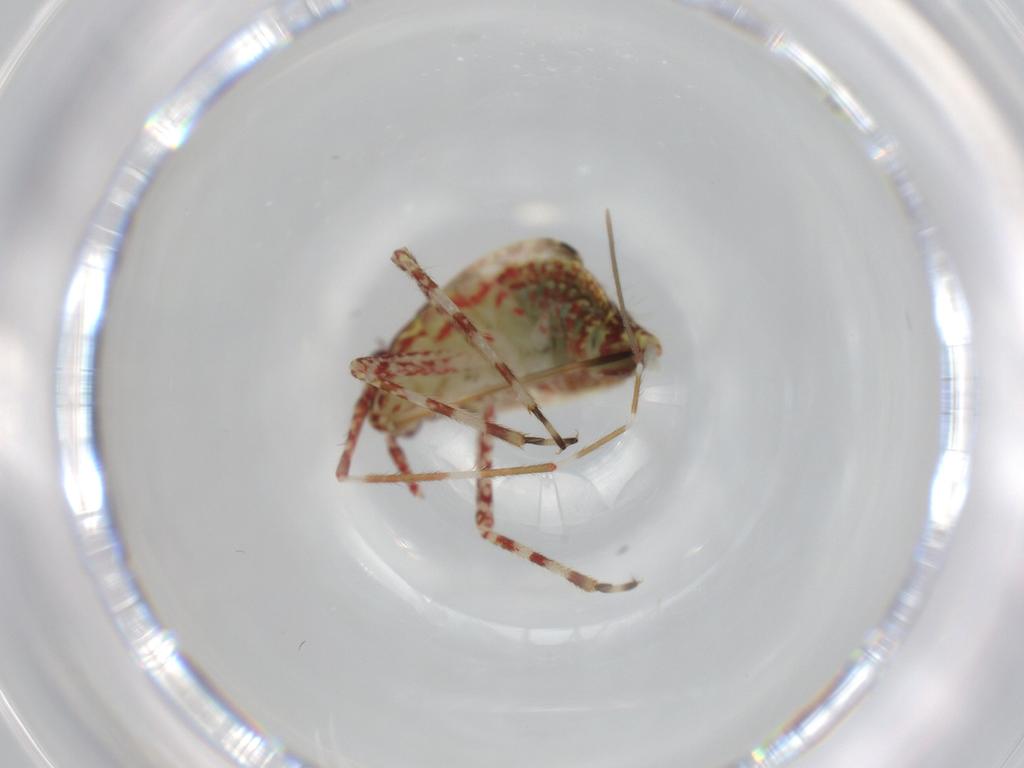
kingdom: Animalia
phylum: Arthropoda
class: Insecta
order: Hemiptera
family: Miridae
